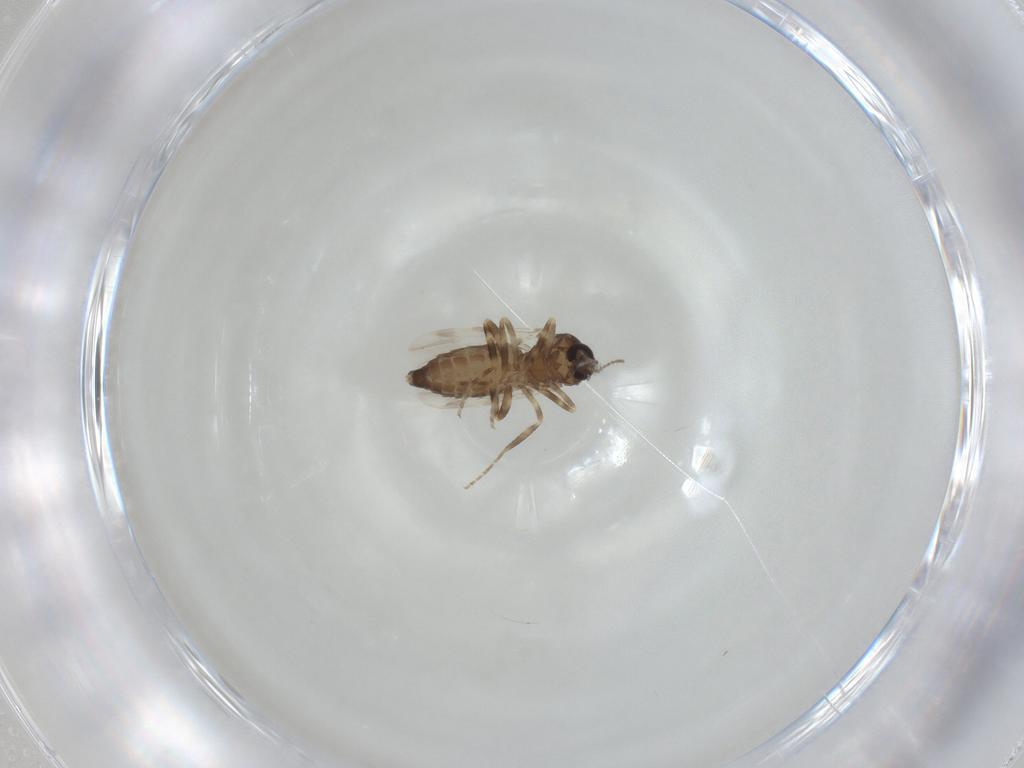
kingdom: Animalia
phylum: Arthropoda
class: Insecta
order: Diptera
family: Ceratopogonidae
